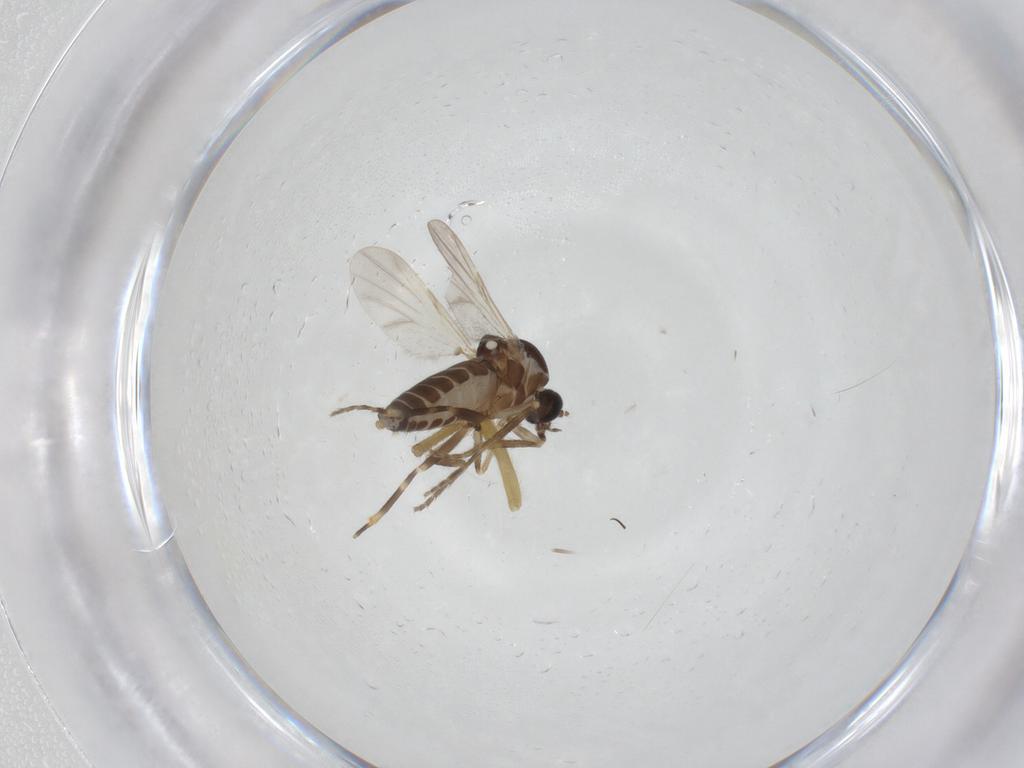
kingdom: Animalia
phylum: Arthropoda
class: Insecta
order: Diptera
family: Ceratopogonidae
